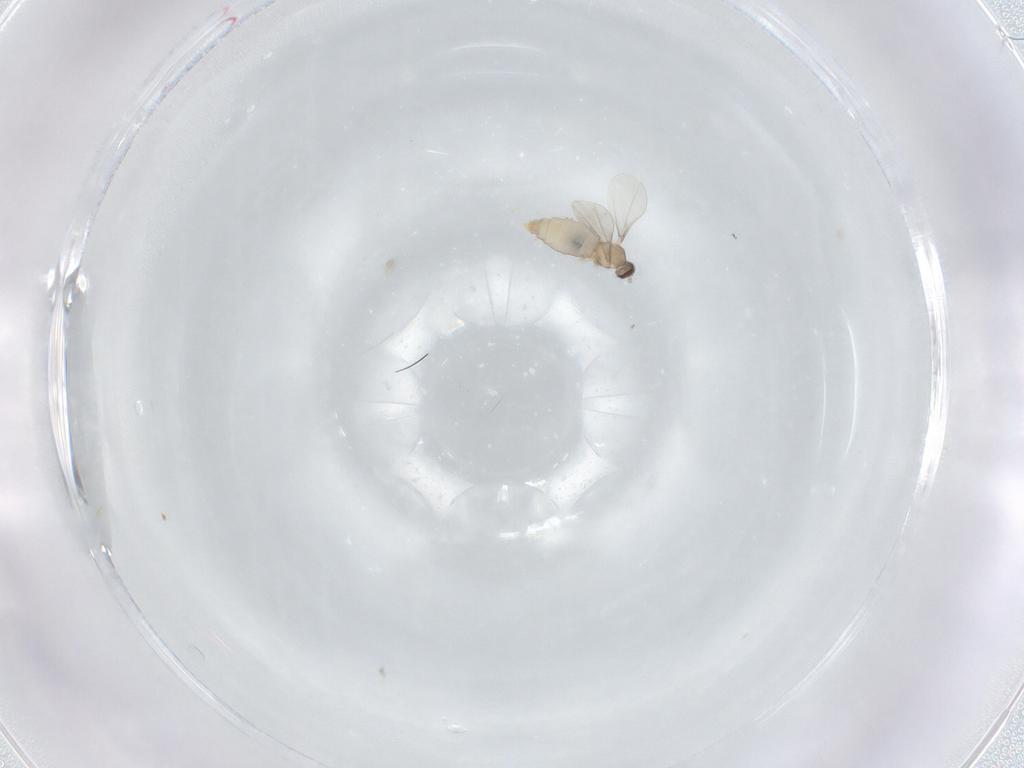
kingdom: Animalia
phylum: Arthropoda
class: Insecta
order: Diptera
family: Cecidomyiidae
